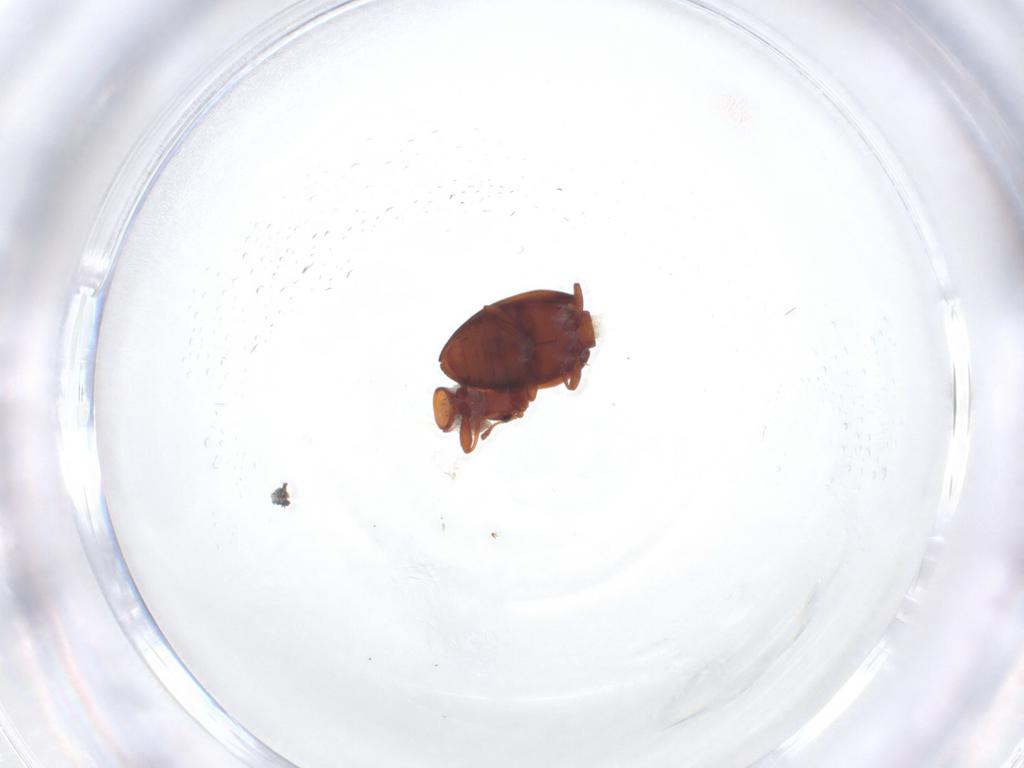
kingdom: Animalia
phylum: Arthropoda
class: Insecta
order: Coleoptera
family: Latridiidae
